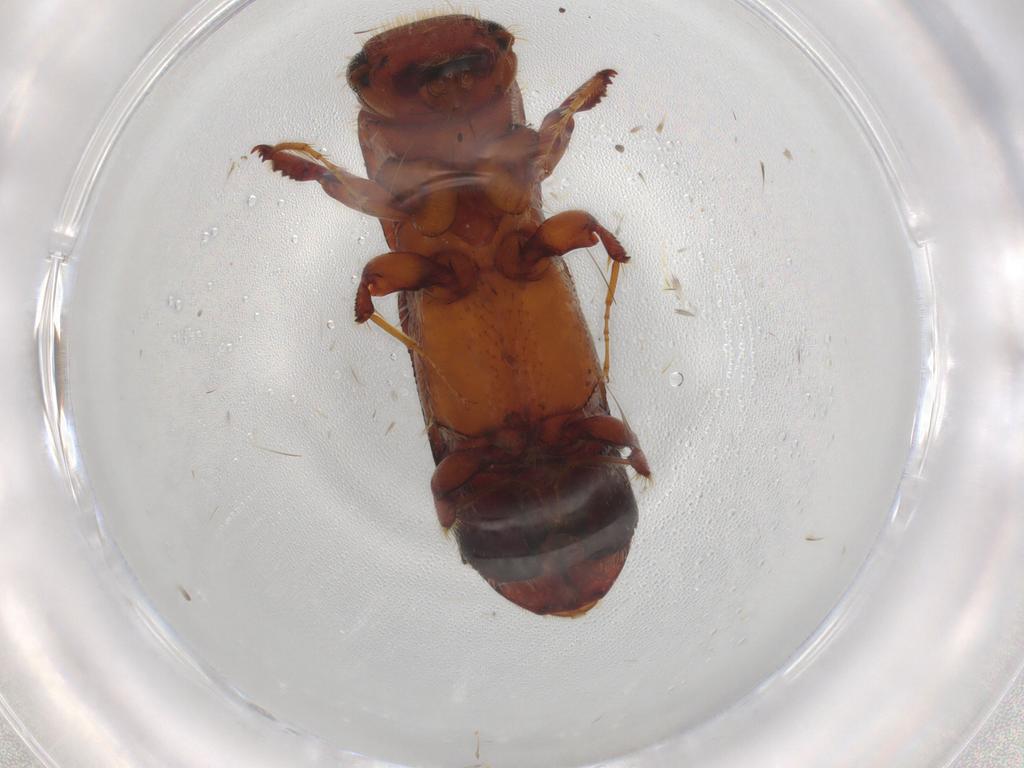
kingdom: Animalia
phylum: Arthropoda
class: Insecta
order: Coleoptera
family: Curculionidae
